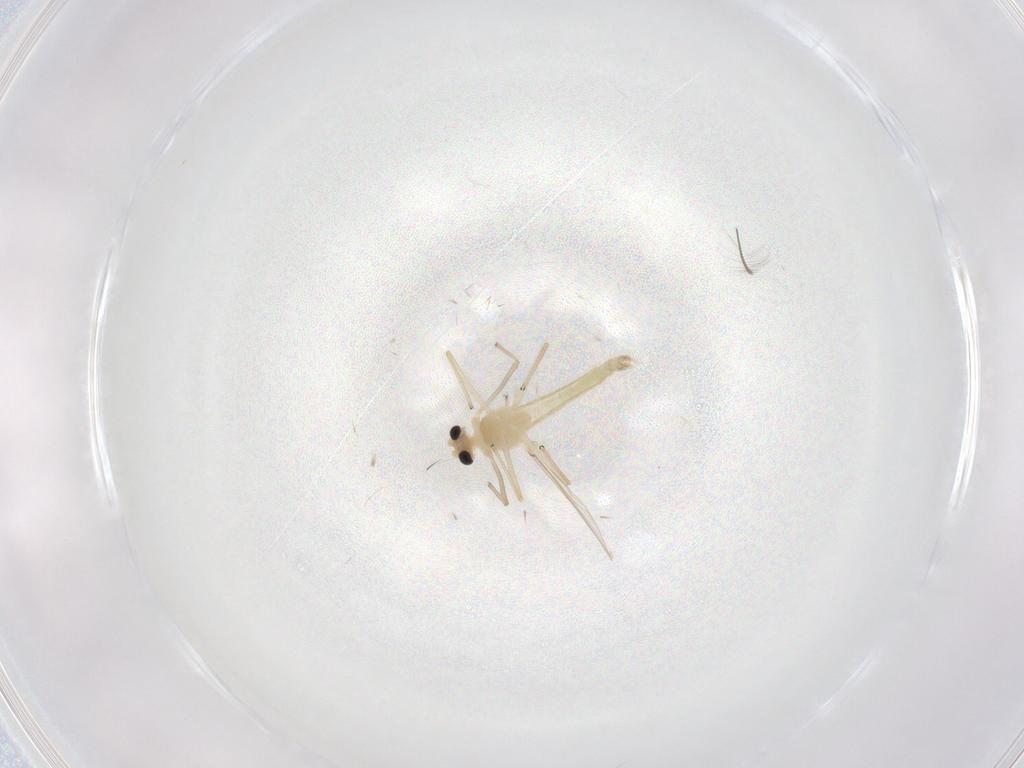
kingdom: Animalia
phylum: Arthropoda
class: Insecta
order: Diptera
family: Chironomidae
